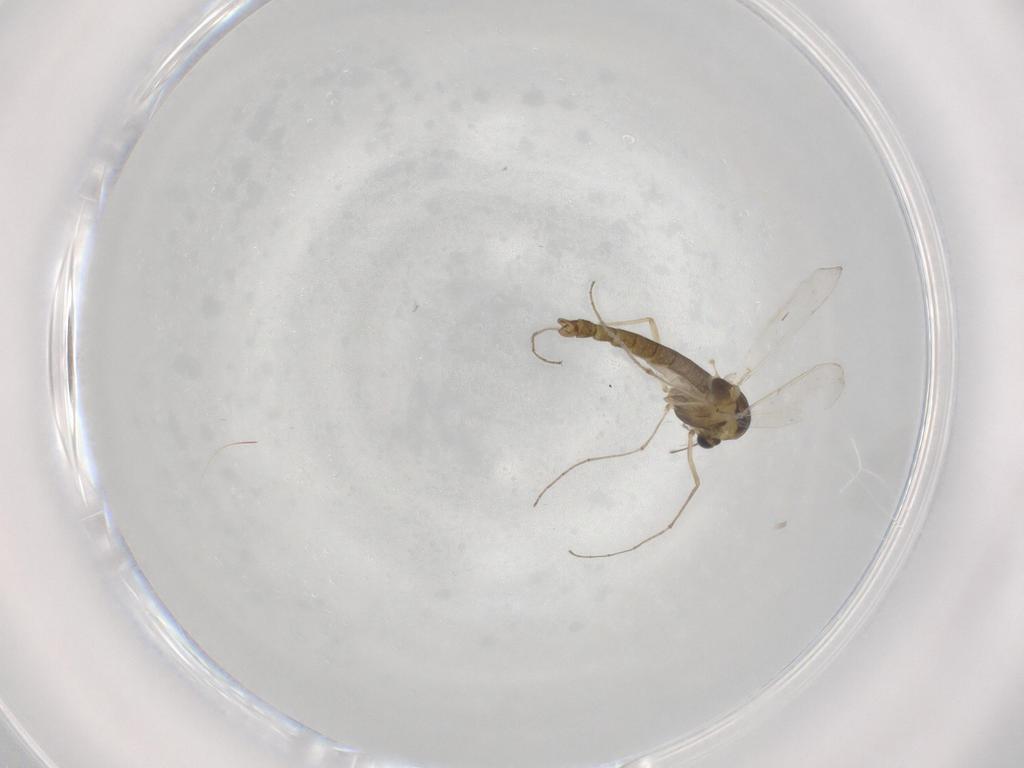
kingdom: Animalia
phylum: Arthropoda
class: Insecta
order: Diptera
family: Chironomidae
